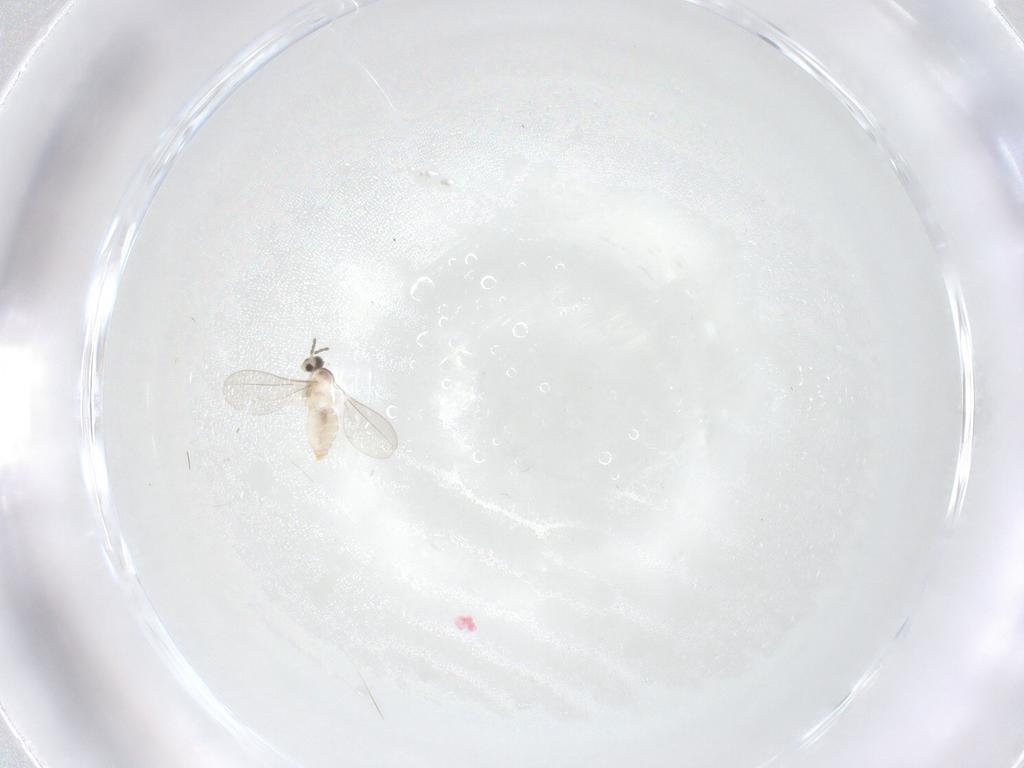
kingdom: Animalia
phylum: Arthropoda
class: Insecta
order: Diptera
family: Cecidomyiidae
